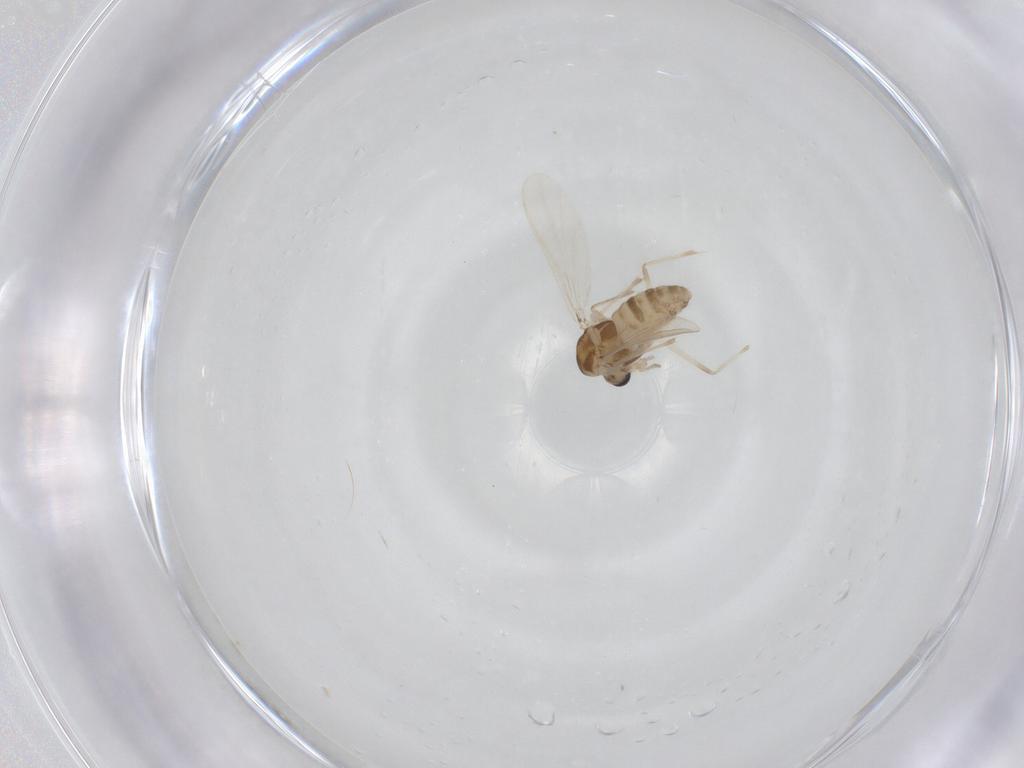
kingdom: Animalia
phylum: Arthropoda
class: Insecta
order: Diptera
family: Chironomidae
